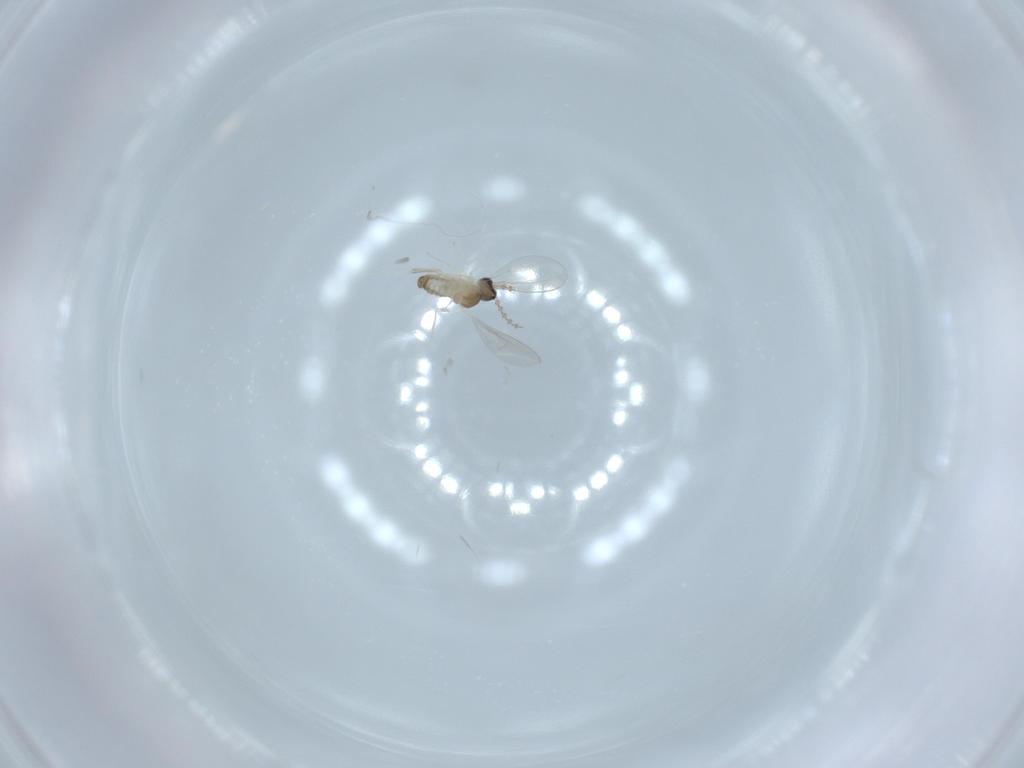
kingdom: Animalia
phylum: Arthropoda
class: Insecta
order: Diptera
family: Cecidomyiidae
